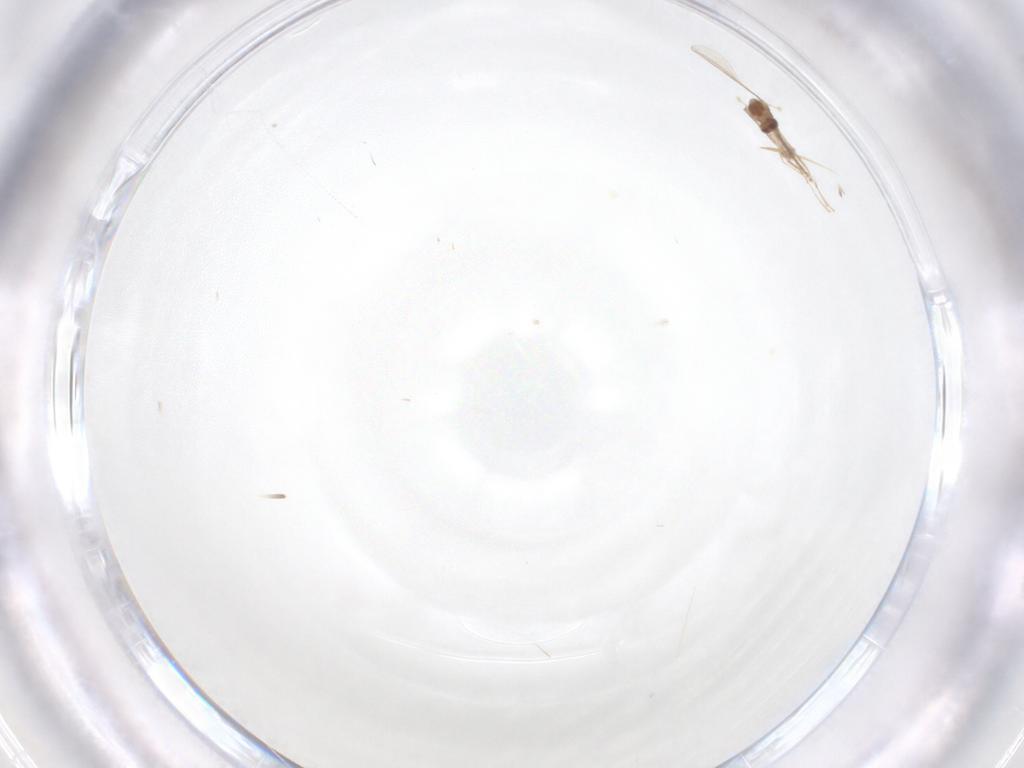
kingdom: Animalia
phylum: Arthropoda
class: Insecta
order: Diptera
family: Cecidomyiidae
